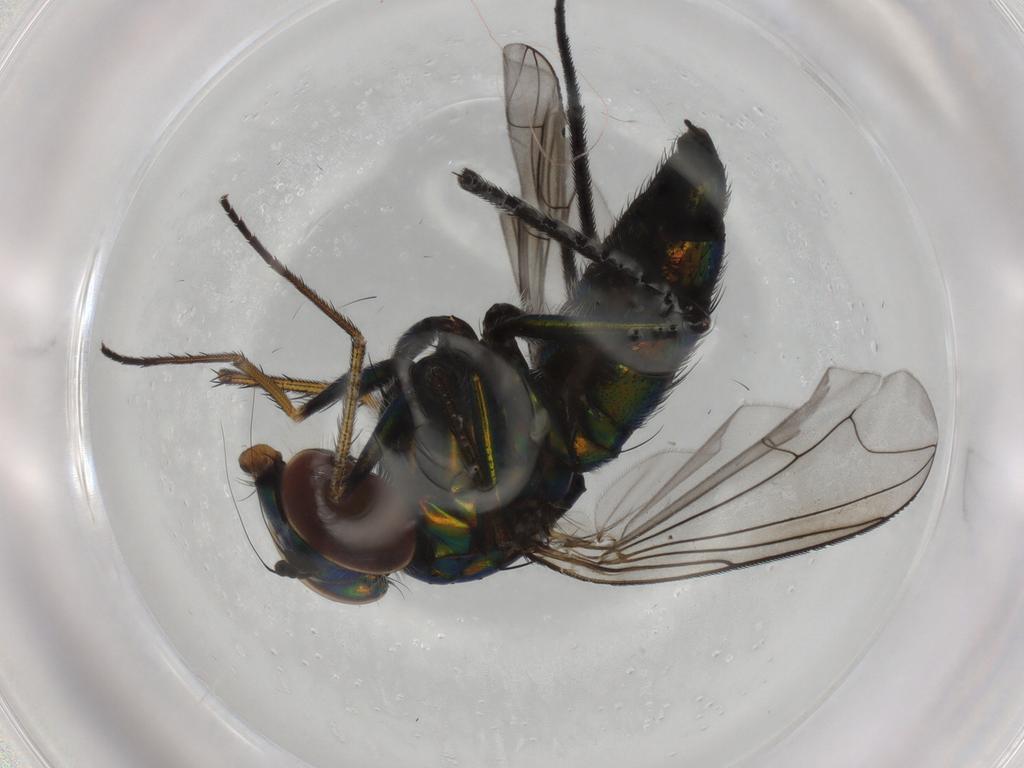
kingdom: Animalia
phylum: Arthropoda
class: Insecta
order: Diptera
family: Dolichopodidae
